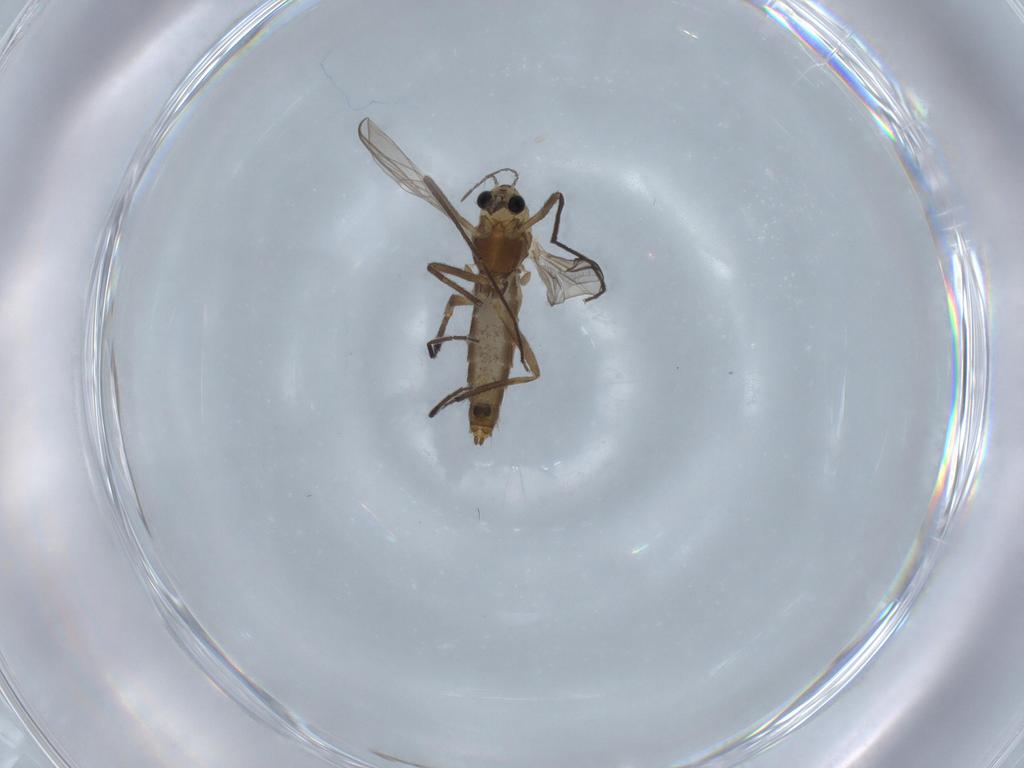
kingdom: Animalia
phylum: Arthropoda
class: Insecta
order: Diptera
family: Chironomidae
